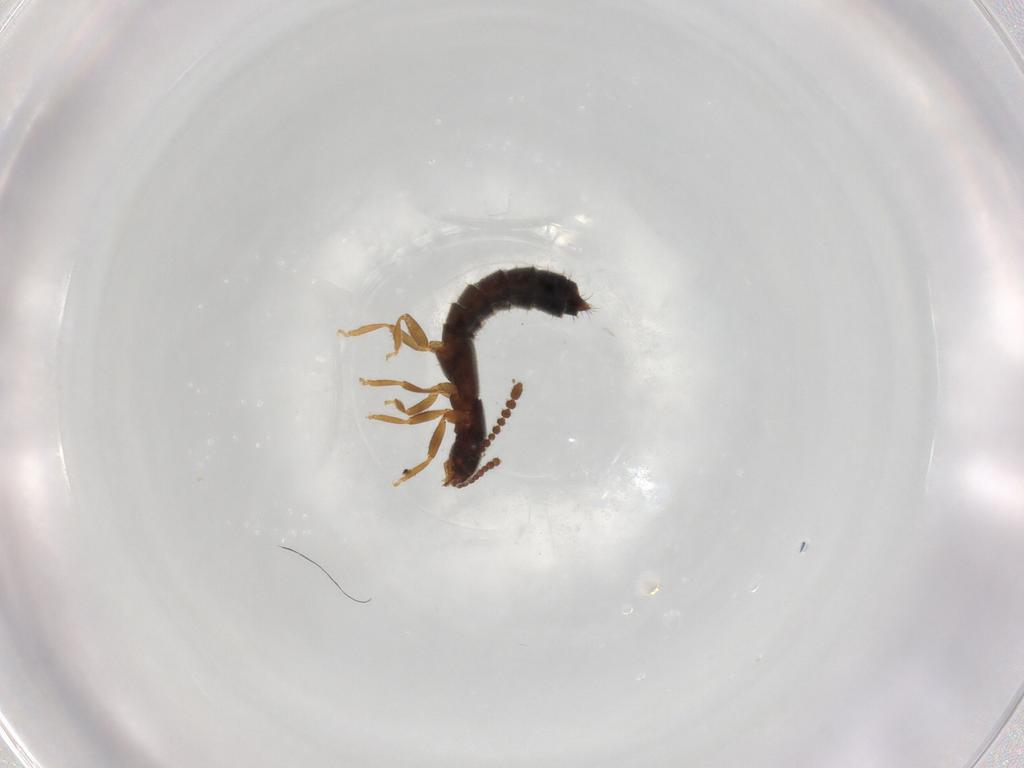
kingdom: Animalia
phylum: Arthropoda
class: Insecta
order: Coleoptera
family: Staphylinidae
